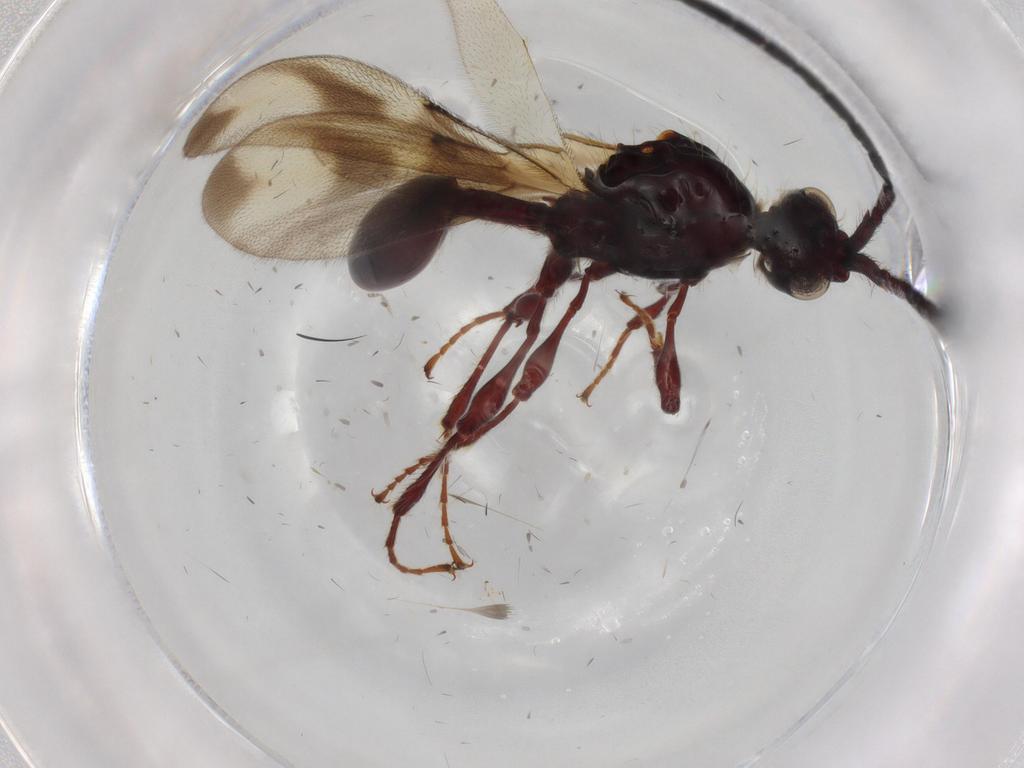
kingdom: Animalia
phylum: Arthropoda
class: Insecta
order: Hymenoptera
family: Diapriidae
